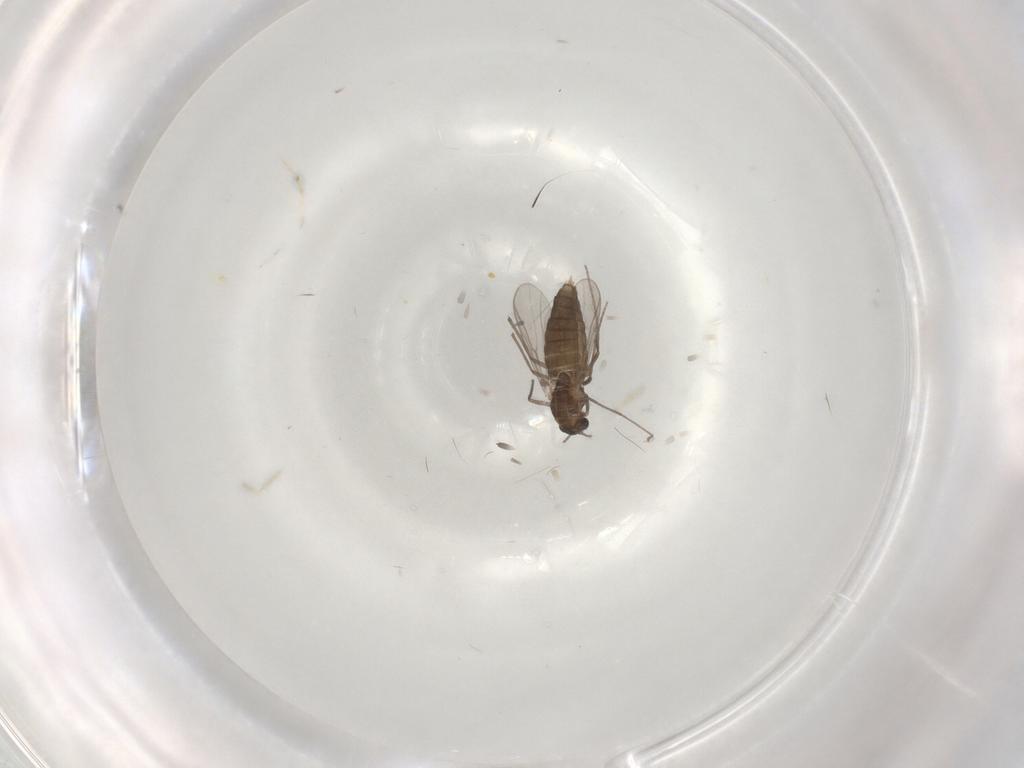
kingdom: Animalia
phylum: Arthropoda
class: Insecta
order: Diptera
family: Chironomidae
